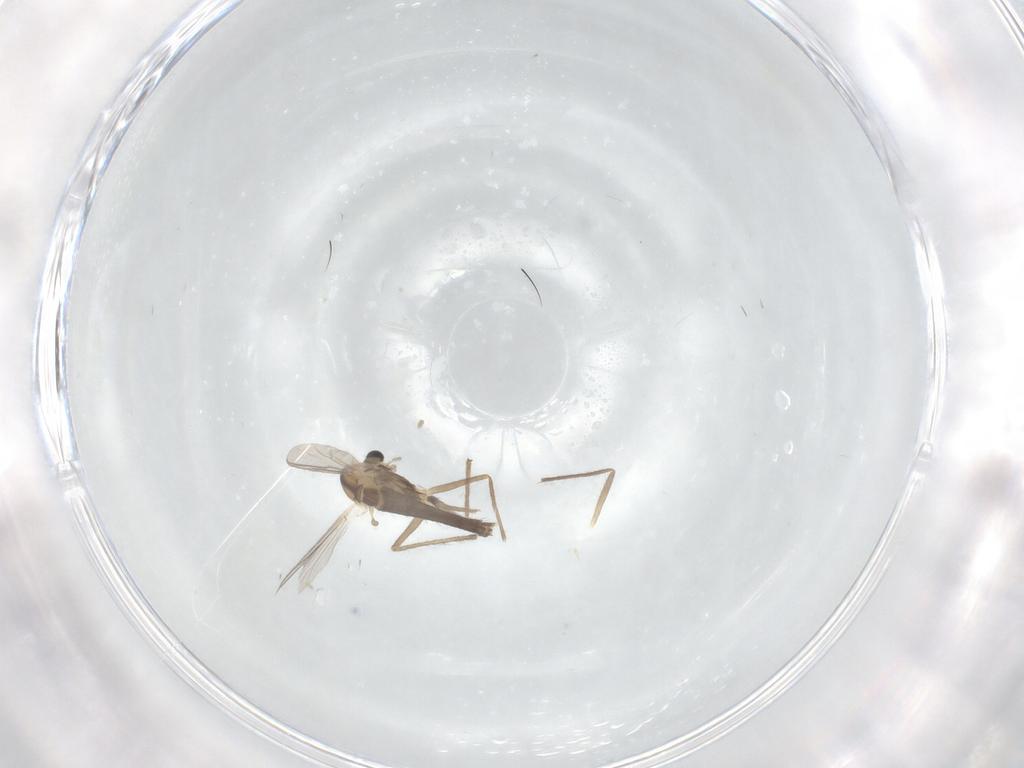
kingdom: Animalia
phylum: Arthropoda
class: Insecta
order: Diptera
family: Chironomidae
